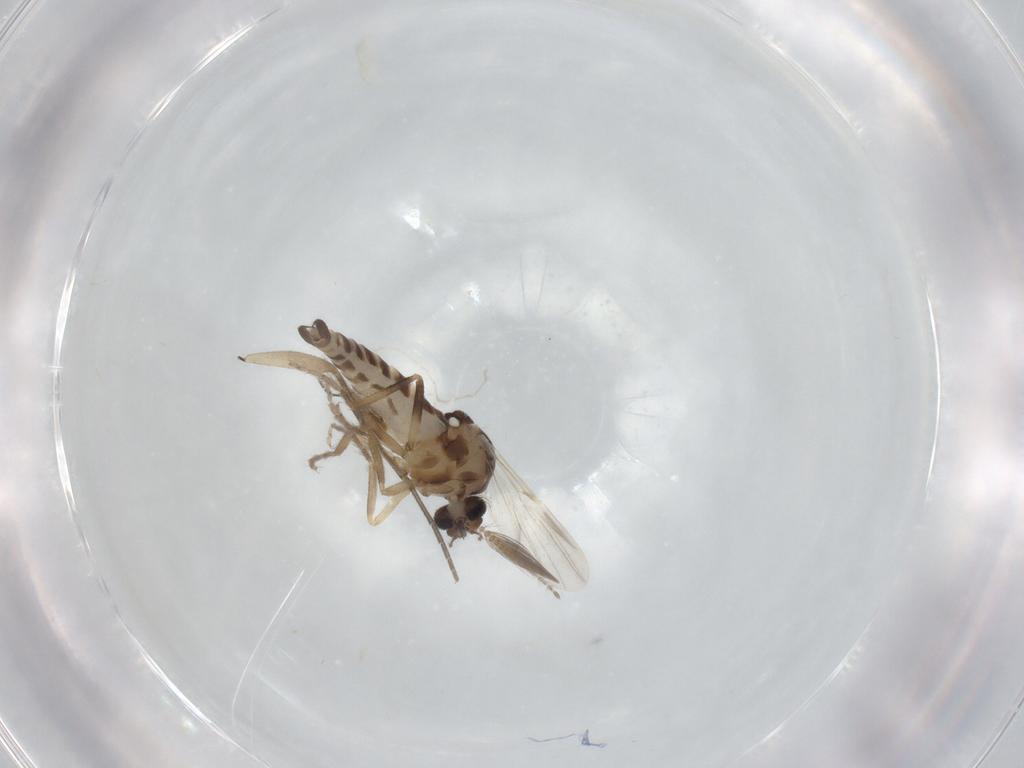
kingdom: Animalia
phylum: Arthropoda
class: Insecta
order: Diptera
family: Ceratopogonidae
